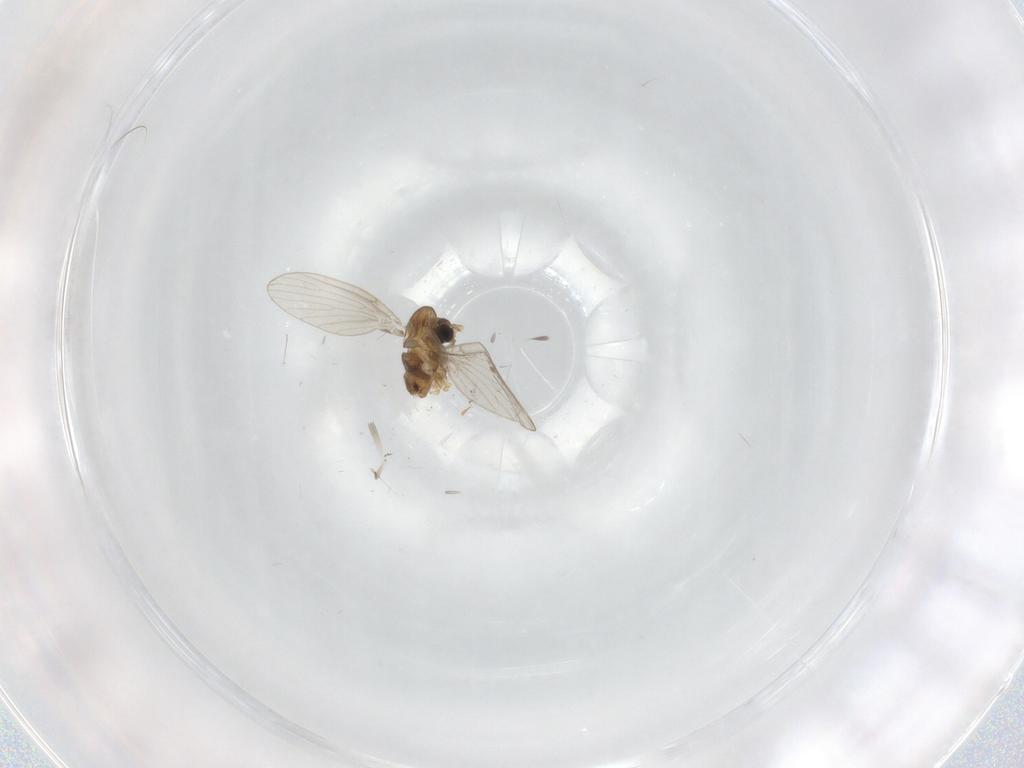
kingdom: Animalia
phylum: Arthropoda
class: Insecta
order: Diptera
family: Psychodidae
